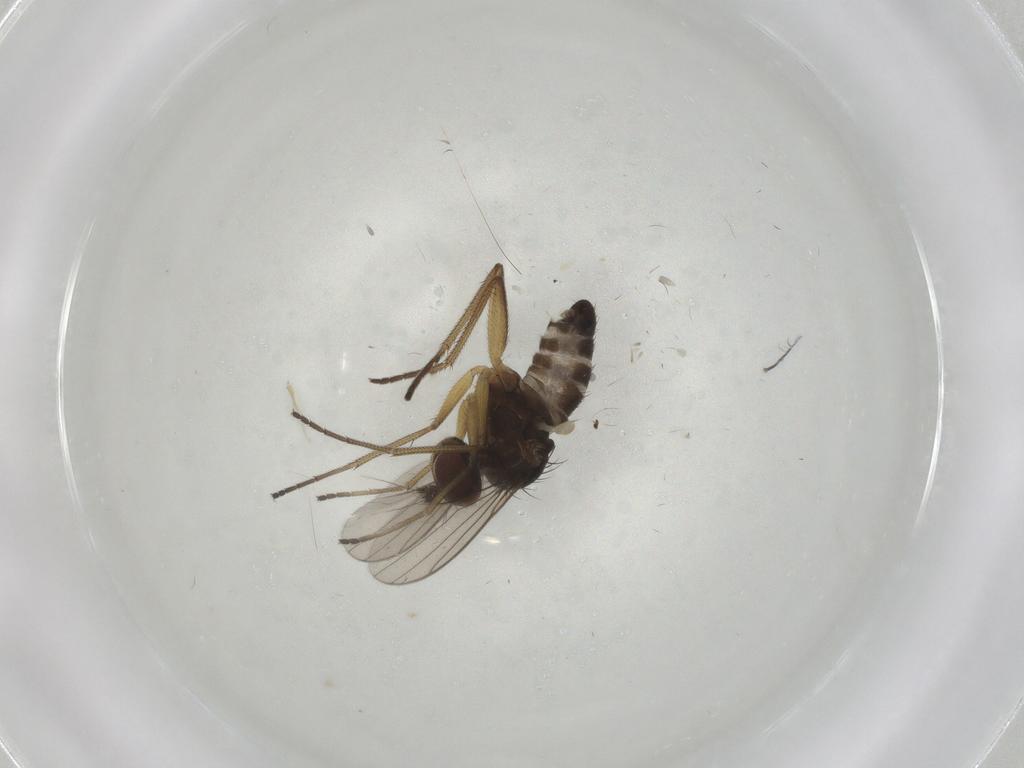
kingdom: Animalia
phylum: Arthropoda
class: Insecta
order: Diptera
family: Dolichopodidae
